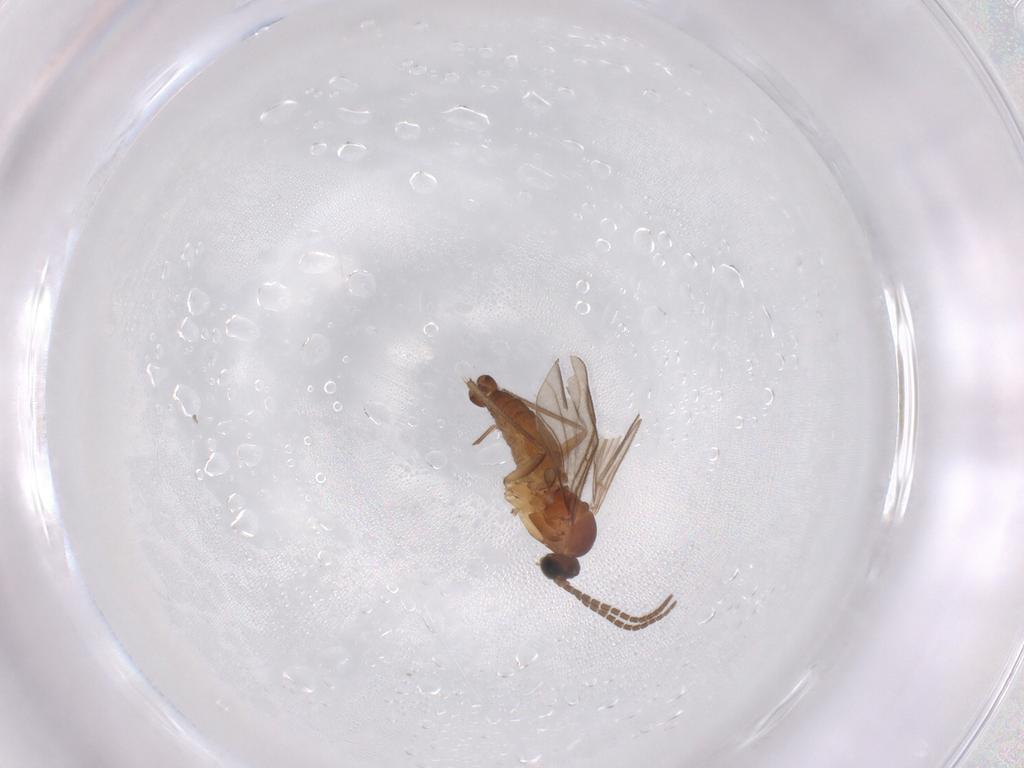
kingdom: Animalia
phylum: Arthropoda
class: Insecta
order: Diptera
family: Sciaridae
